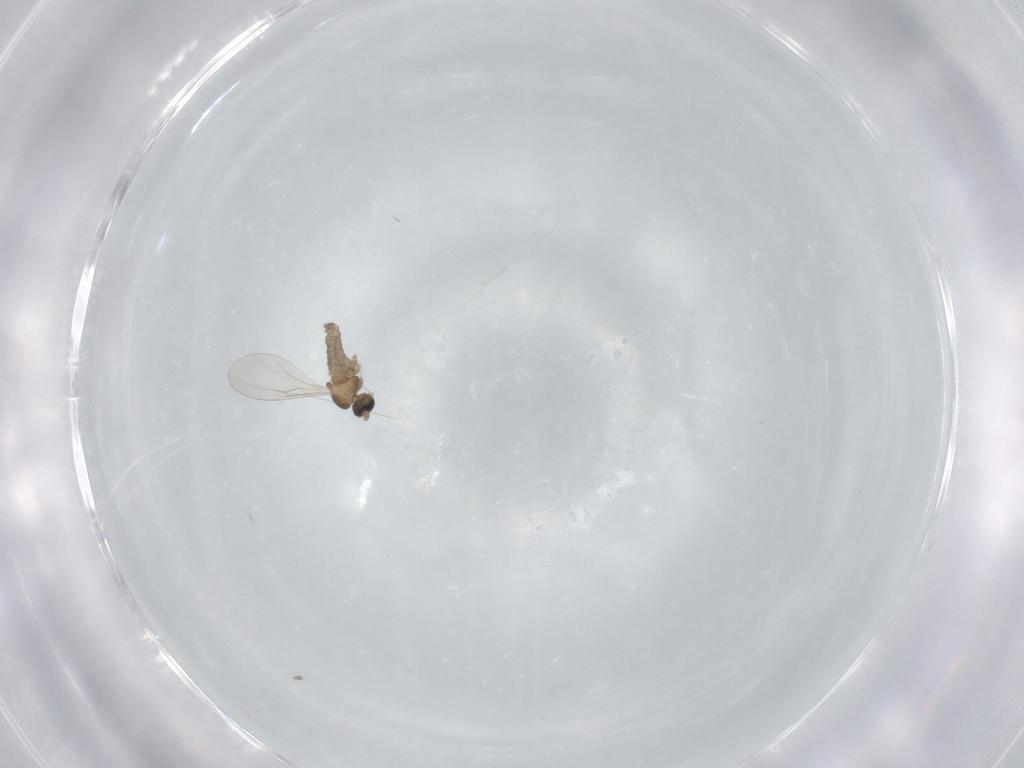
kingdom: Animalia
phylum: Arthropoda
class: Insecta
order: Diptera
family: Cecidomyiidae
